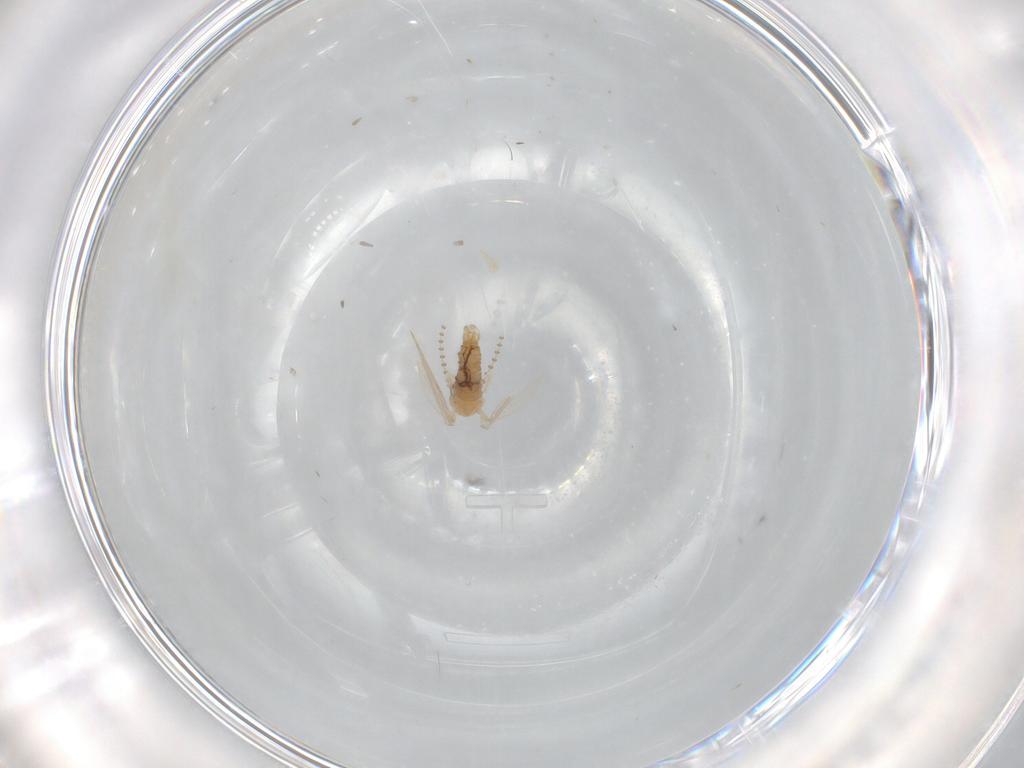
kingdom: Animalia
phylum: Arthropoda
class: Insecta
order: Diptera
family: Psychodidae
